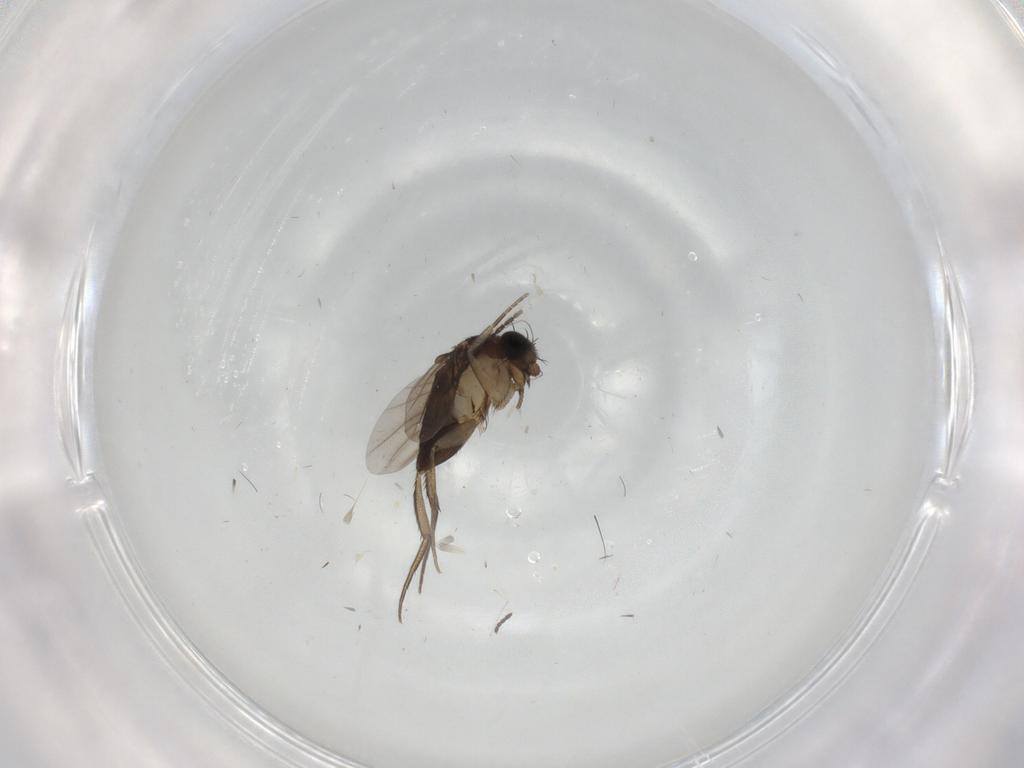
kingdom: Animalia
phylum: Arthropoda
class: Insecta
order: Diptera
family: Phoridae
